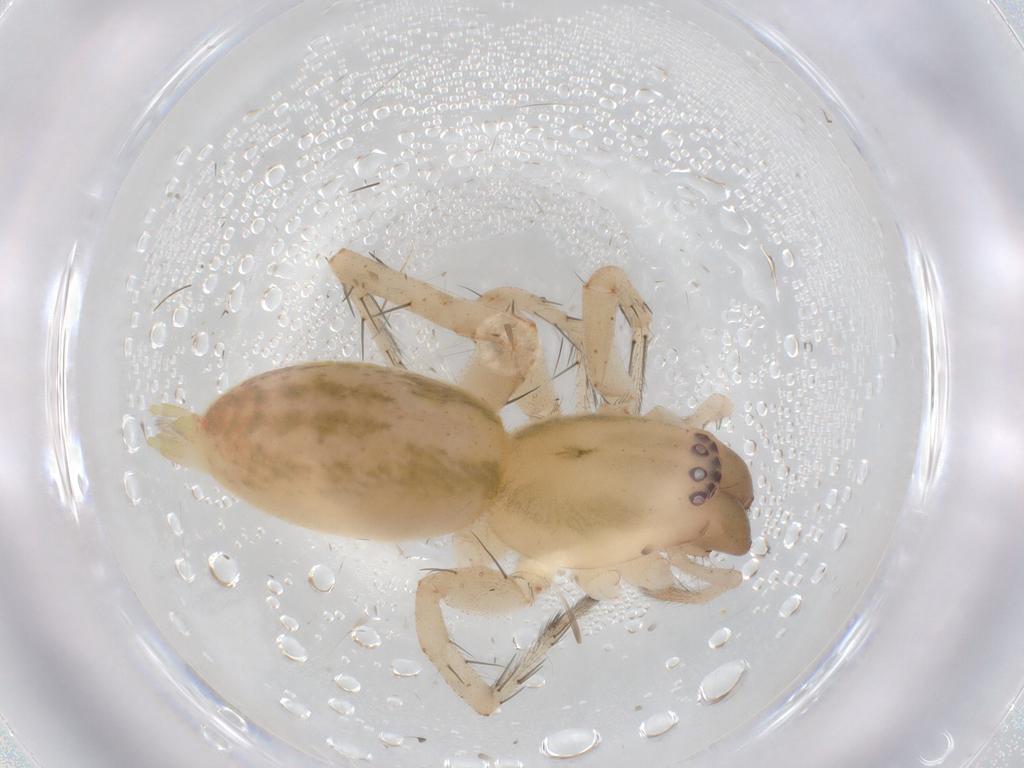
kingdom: Animalia
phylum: Arthropoda
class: Arachnida
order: Araneae
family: Anyphaenidae
